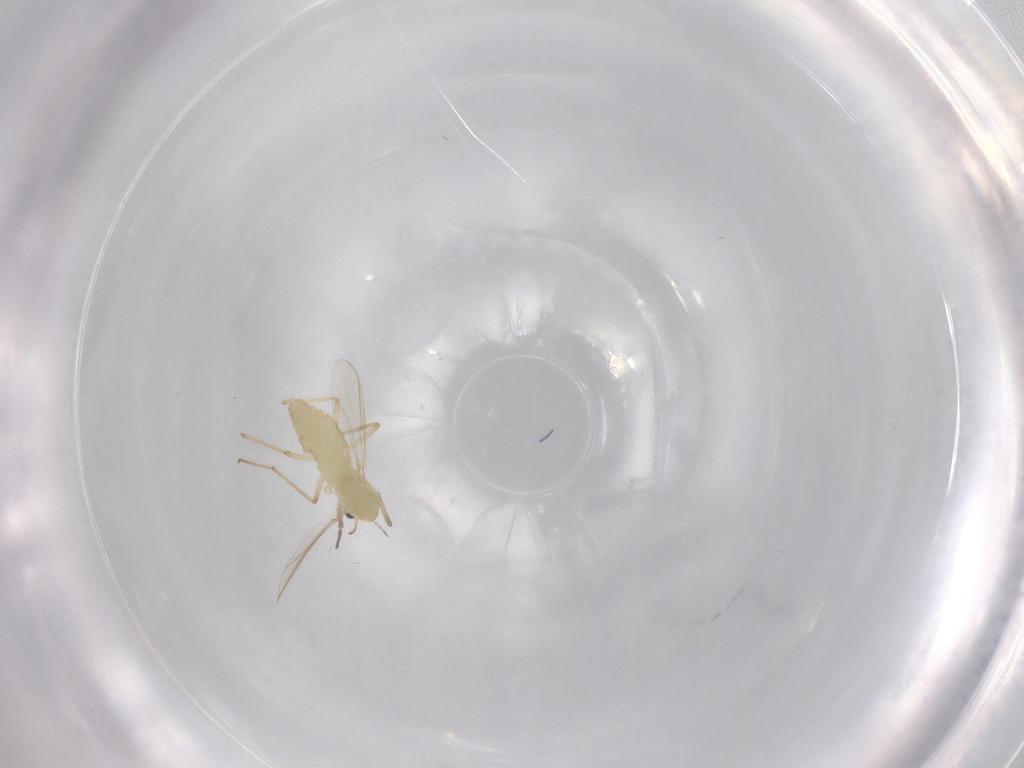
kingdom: Animalia
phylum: Arthropoda
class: Insecta
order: Diptera
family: Chironomidae
